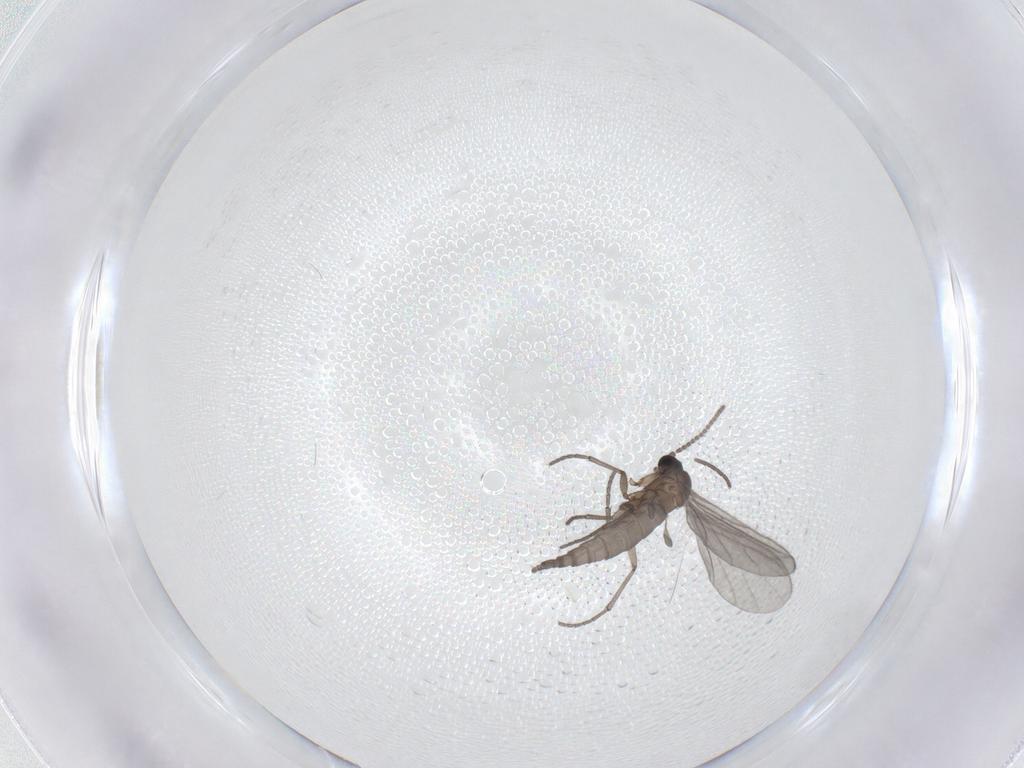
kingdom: Animalia
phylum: Arthropoda
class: Insecta
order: Diptera
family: Sciaridae
